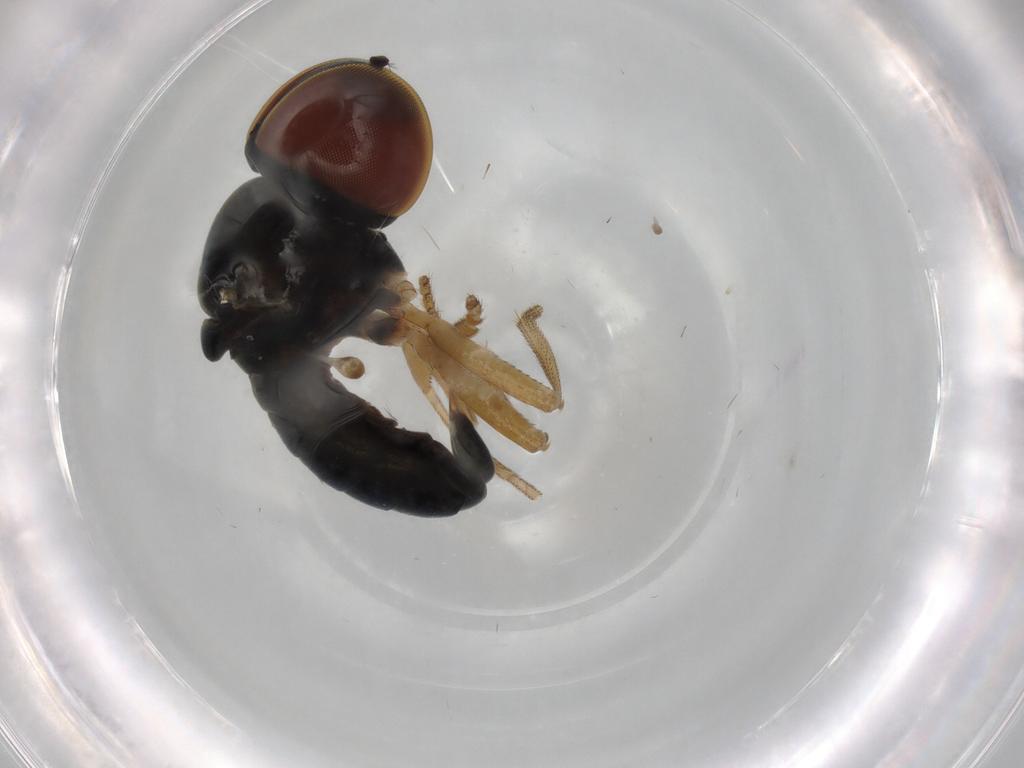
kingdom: Animalia
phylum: Arthropoda
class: Insecta
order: Diptera
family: Pipunculidae
